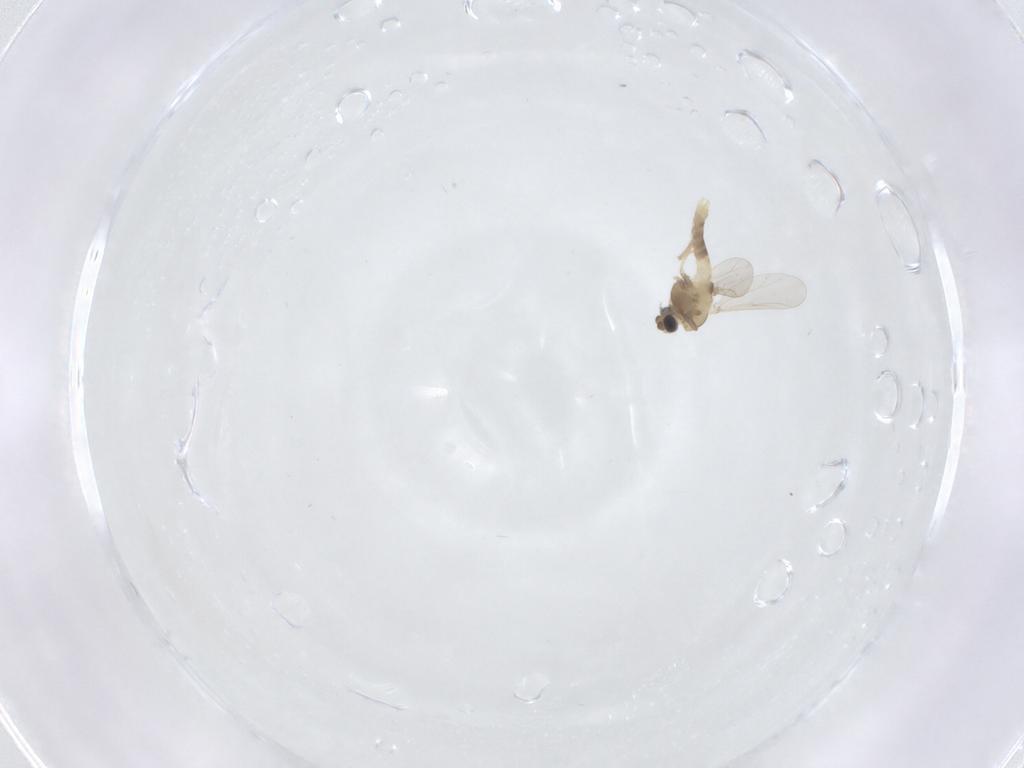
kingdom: Animalia
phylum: Arthropoda
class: Insecta
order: Diptera
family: Sciaridae
